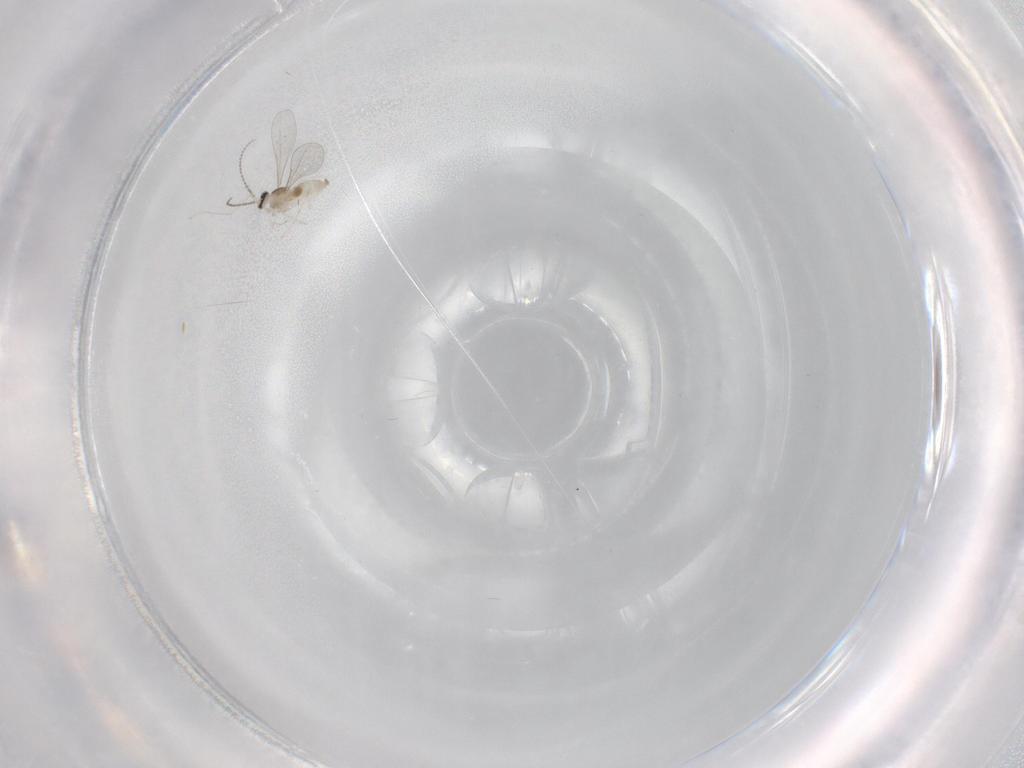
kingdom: Animalia
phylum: Arthropoda
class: Insecta
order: Diptera
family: Cecidomyiidae
